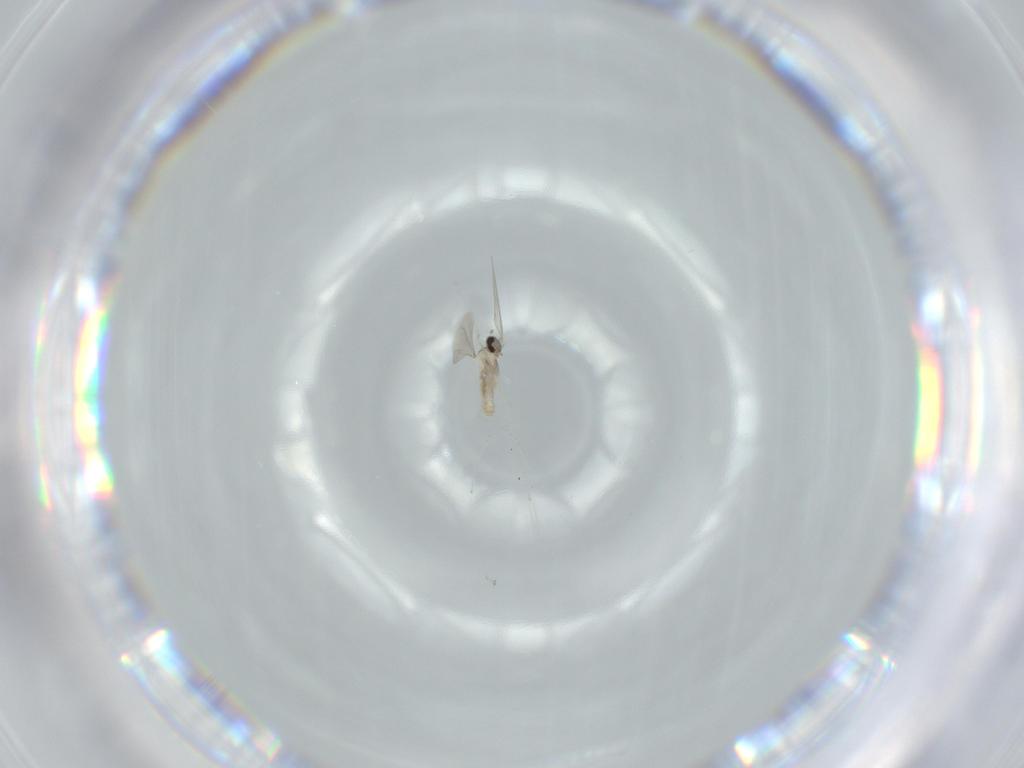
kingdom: Animalia
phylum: Arthropoda
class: Insecta
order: Diptera
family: Cecidomyiidae
